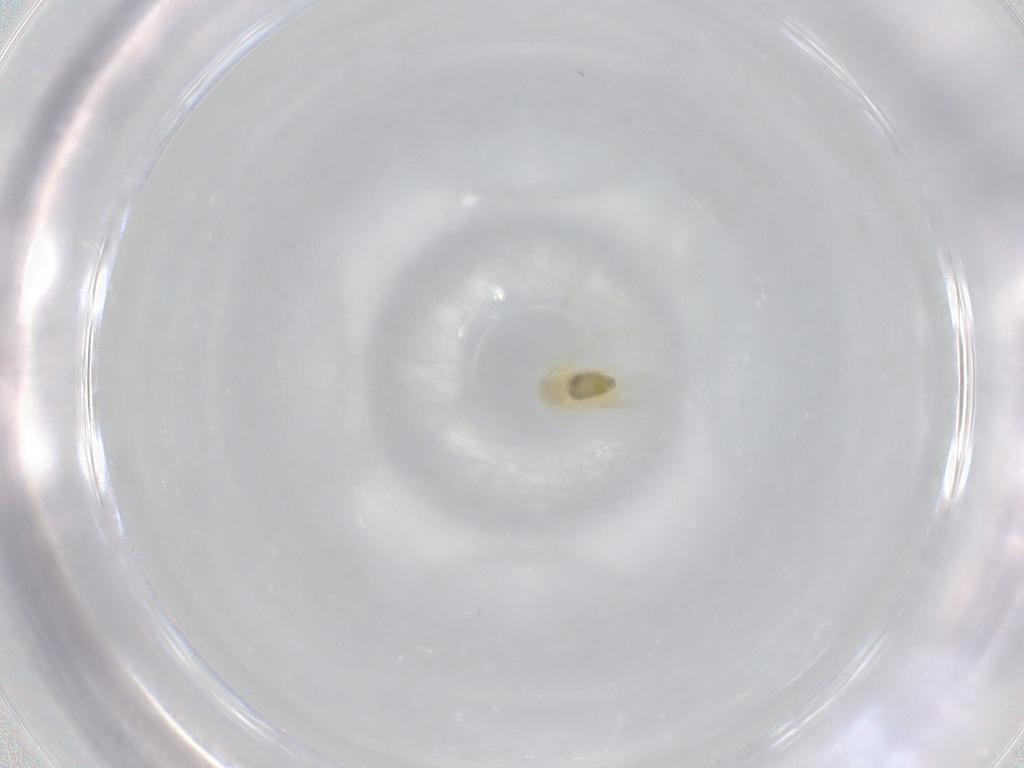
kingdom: Animalia
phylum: Arthropoda
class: Insecta
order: Hemiptera
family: Aleyrodidae
